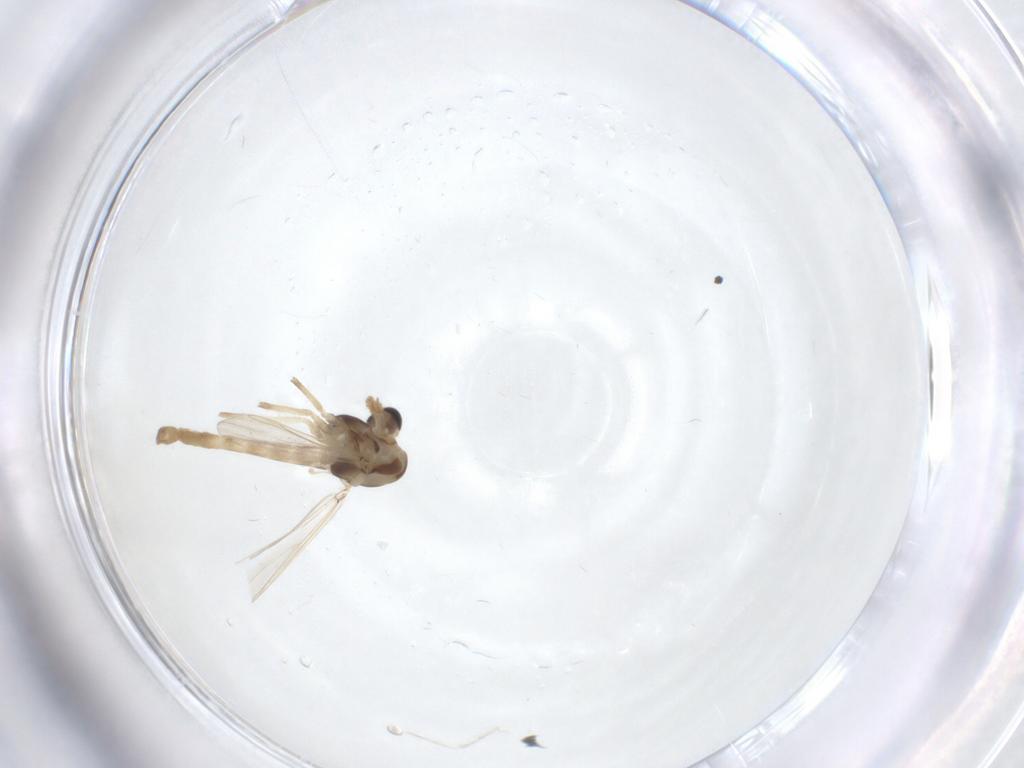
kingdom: Animalia
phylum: Arthropoda
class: Insecta
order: Diptera
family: Chironomidae
